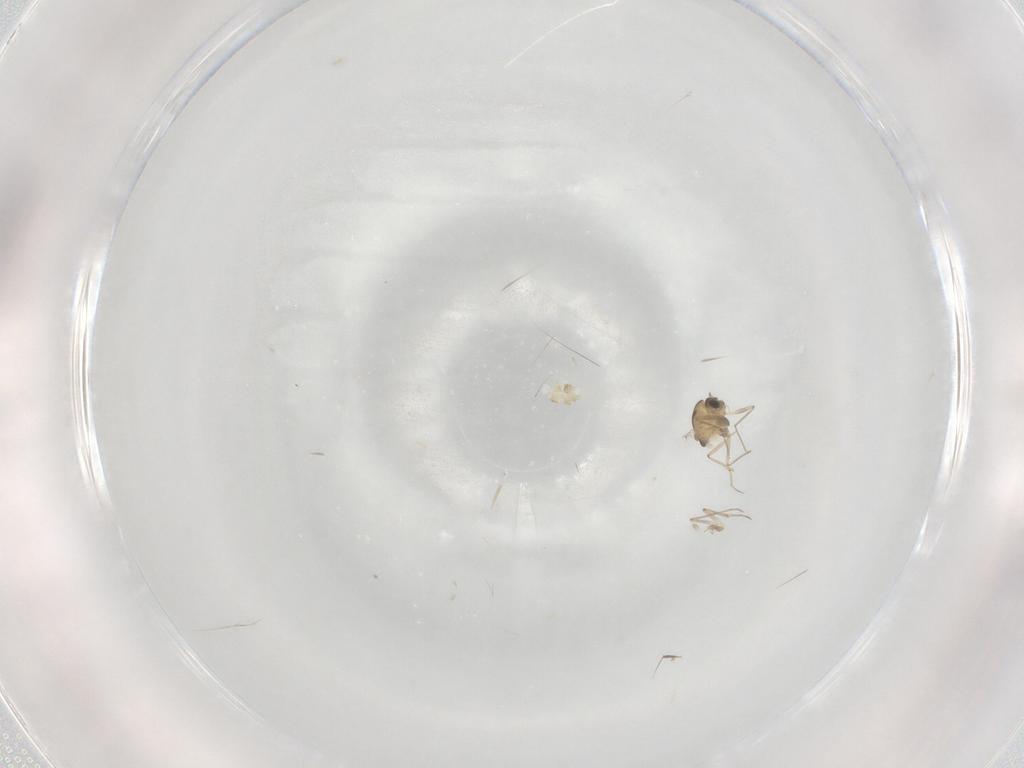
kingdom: Animalia
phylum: Arthropoda
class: Insecta
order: Diptera
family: Chironomidae
